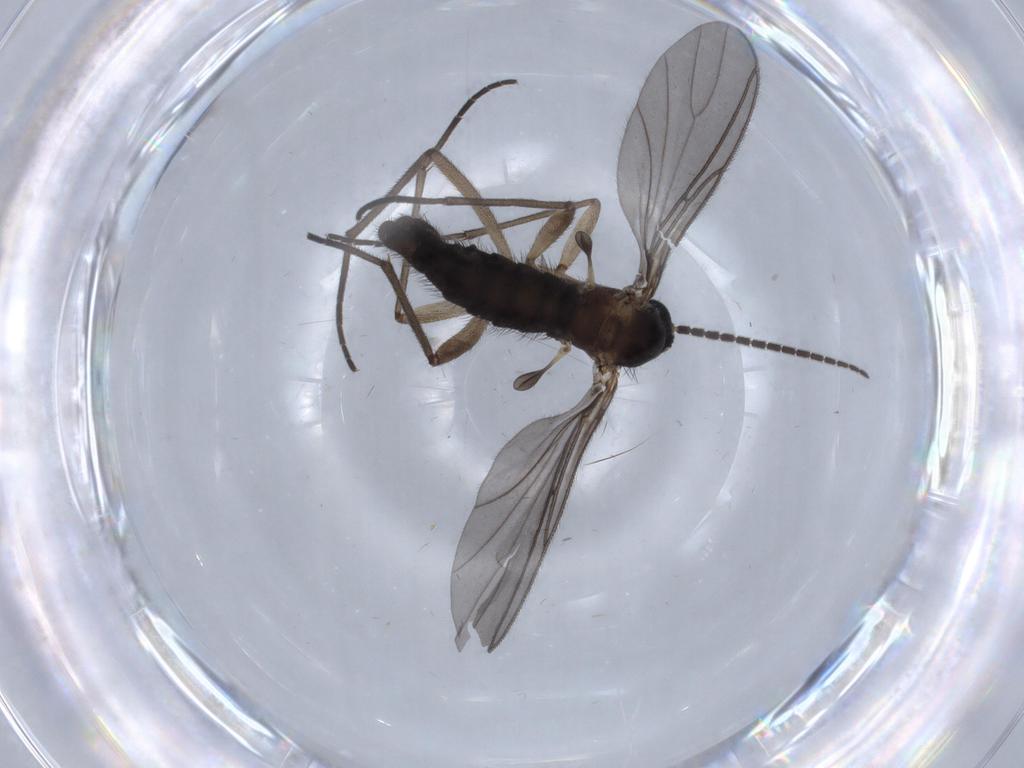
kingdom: Animalia
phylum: Arthropoda
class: Insecta
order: Diptera
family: Sciaridae
